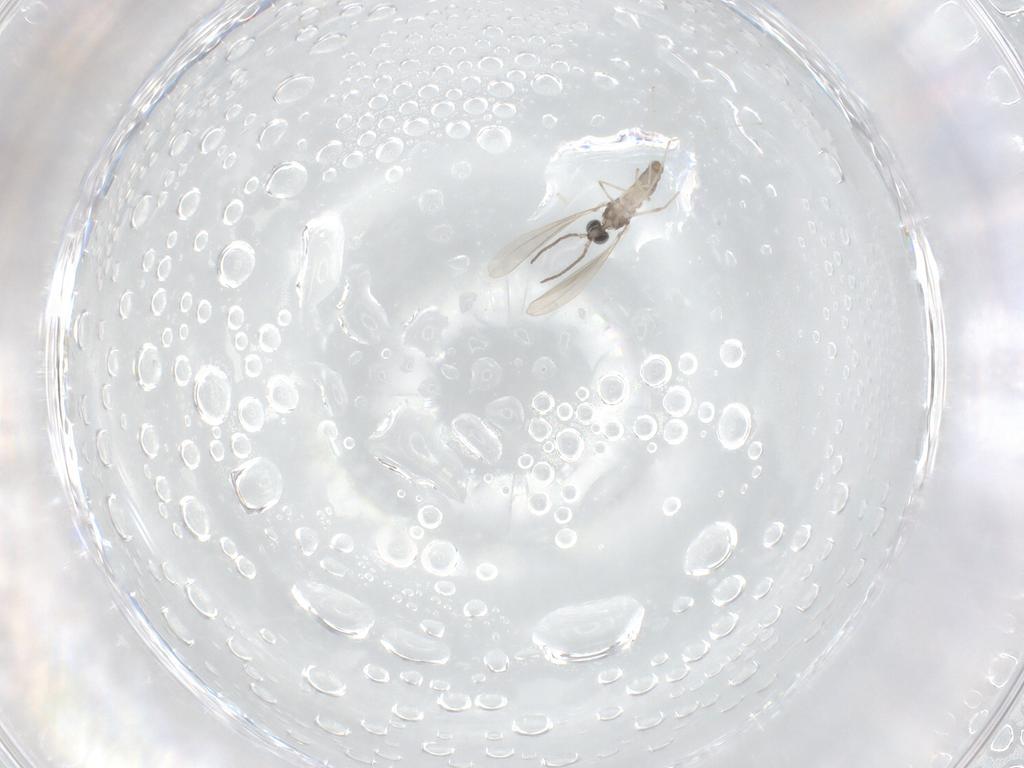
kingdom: Animalia
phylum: Arthropoda
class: Insecta
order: Diptera
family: Cecidomyiidae
